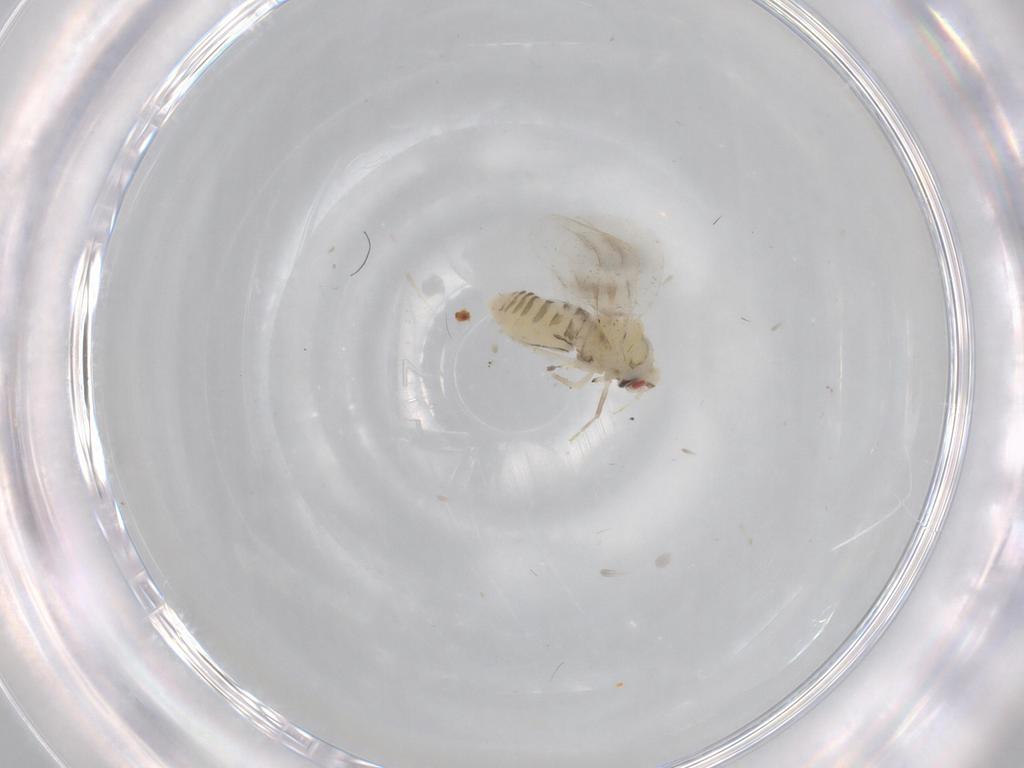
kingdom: Animalia
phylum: Arthropoda
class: Insecta
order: Hemiptera
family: Aleyrodidae
